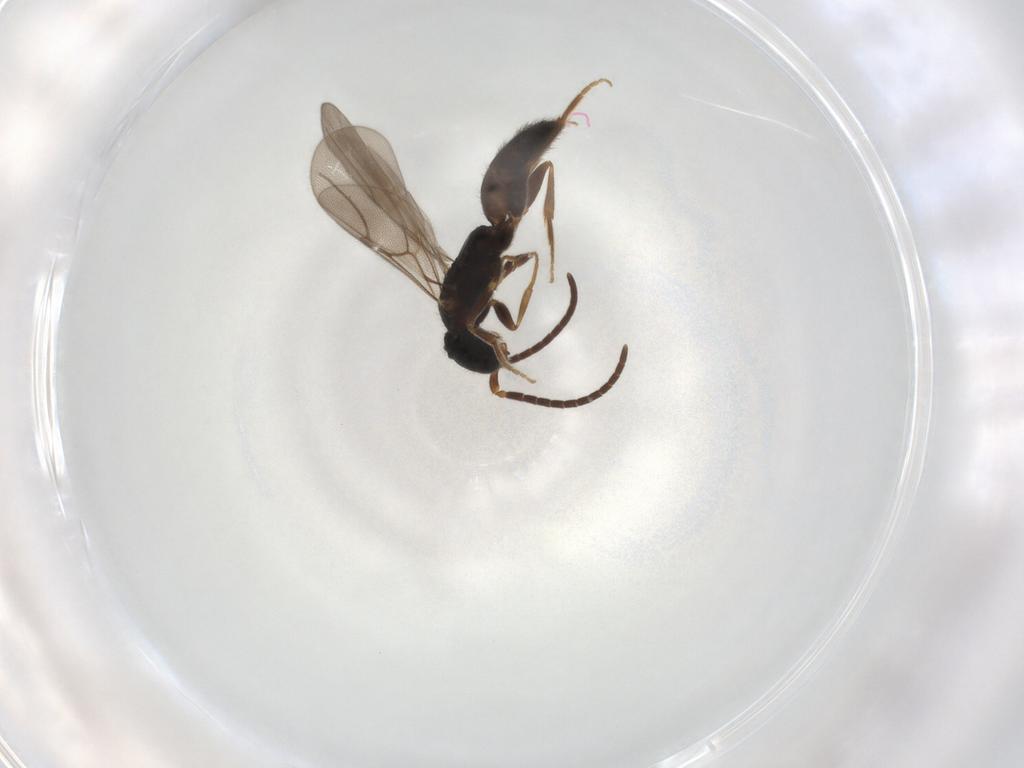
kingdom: Animalia
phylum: Arthropoda
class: Insecta
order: Hymenoptera
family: Bethylidae
